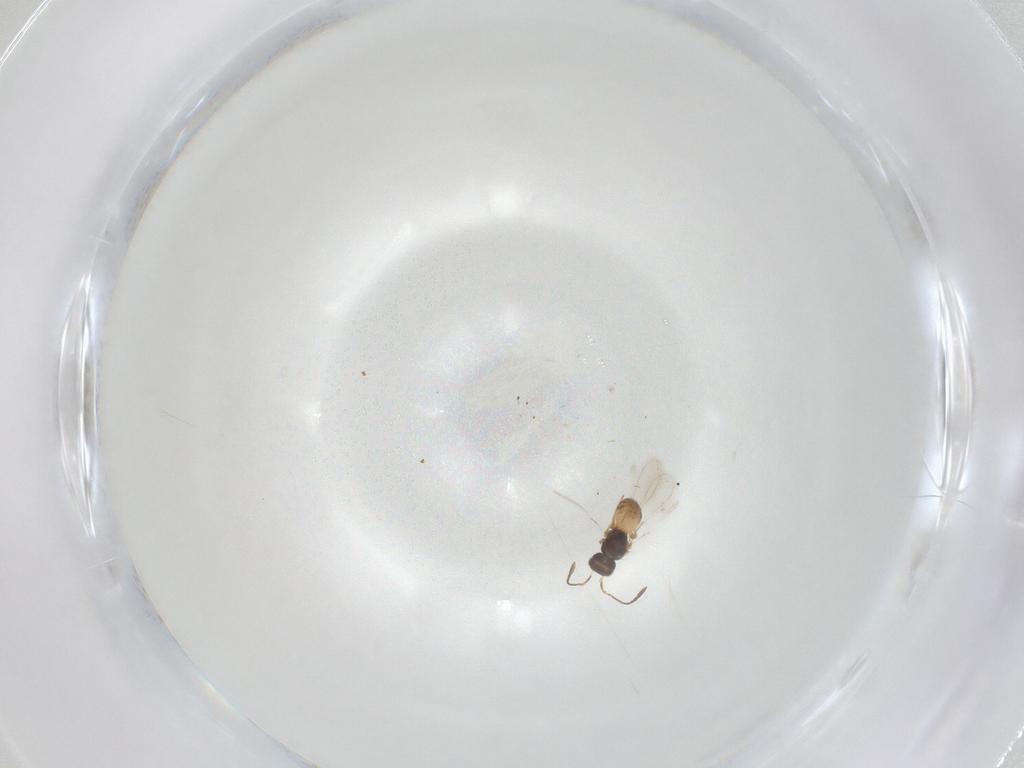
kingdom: Animalia
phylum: Arthropoda
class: Insecta
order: Hymenoptera
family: Mymaridae
